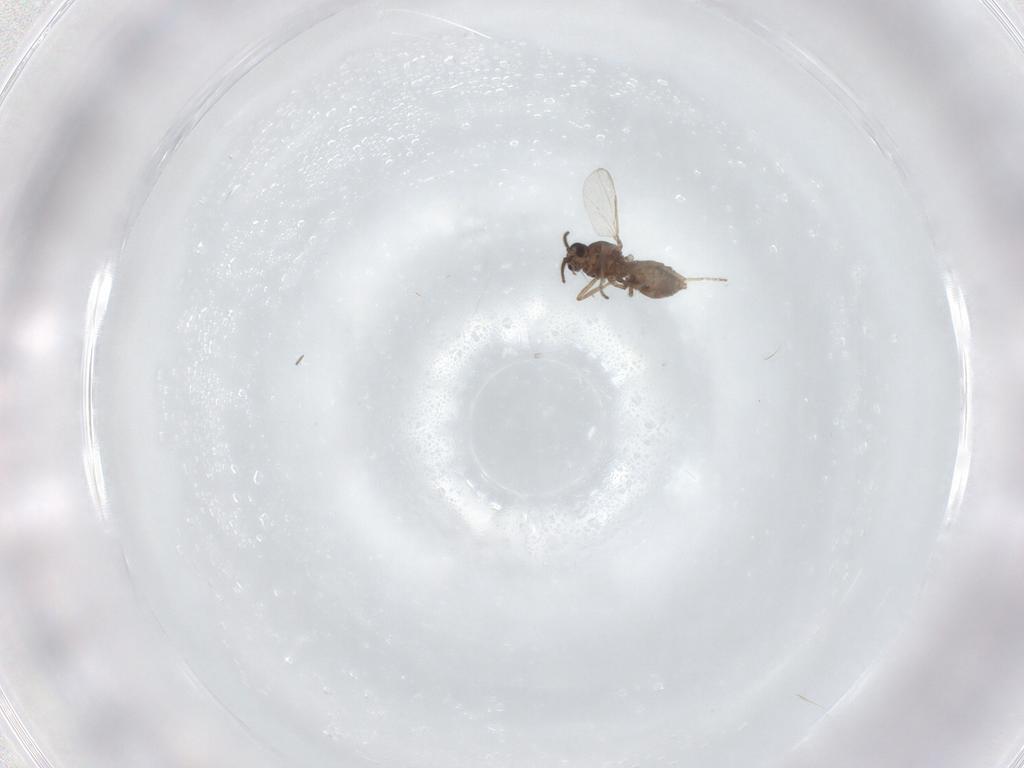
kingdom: Animalia
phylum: Arthropoda
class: Insecta
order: Diptera
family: Ceratopogonidae
